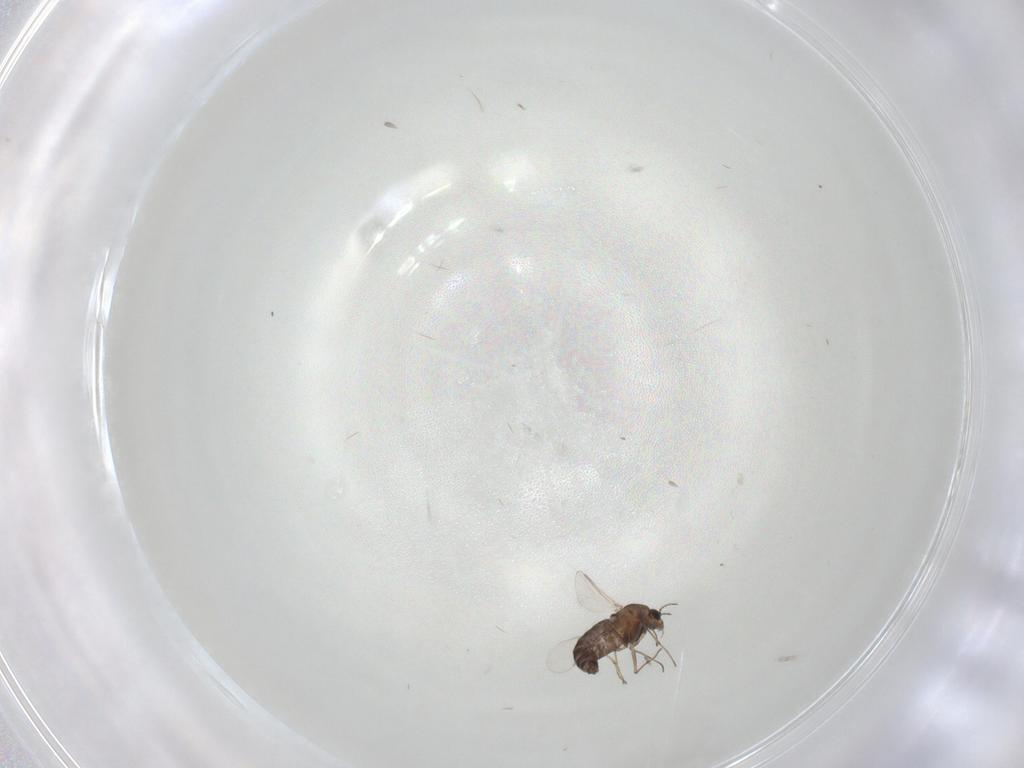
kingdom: Animalia
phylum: Arthropoda
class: Insecta
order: Diptera
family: Chironomidae
